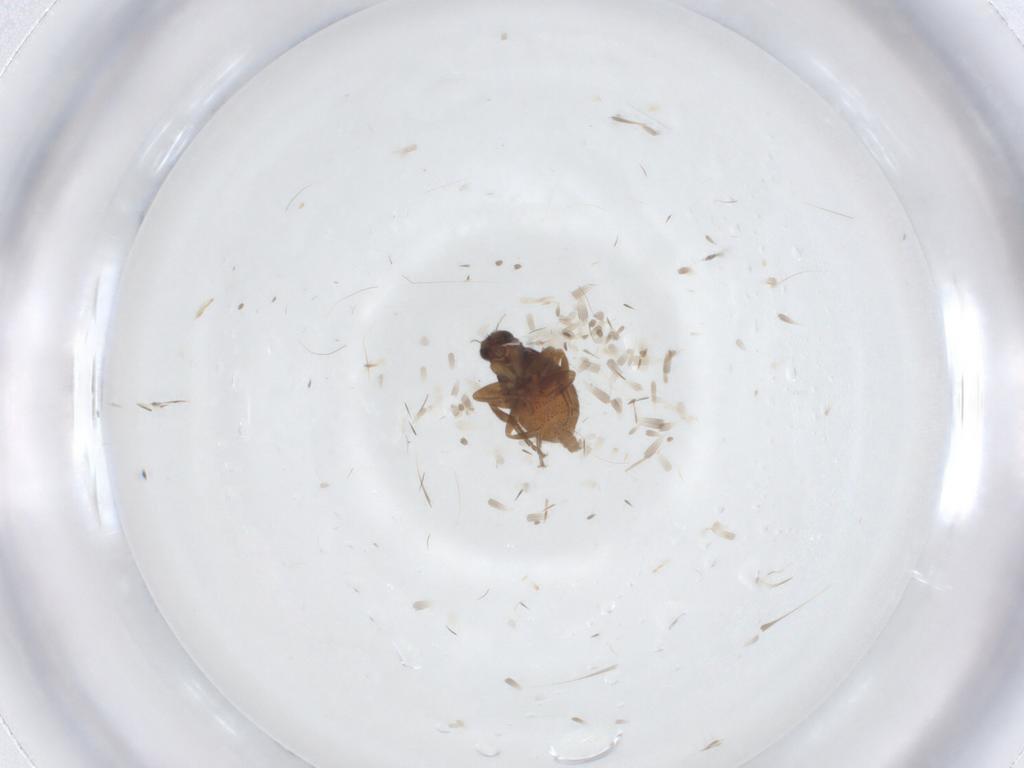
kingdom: Animalia
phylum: Arthropoda
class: Insecta
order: Diptera
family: Phoridae
